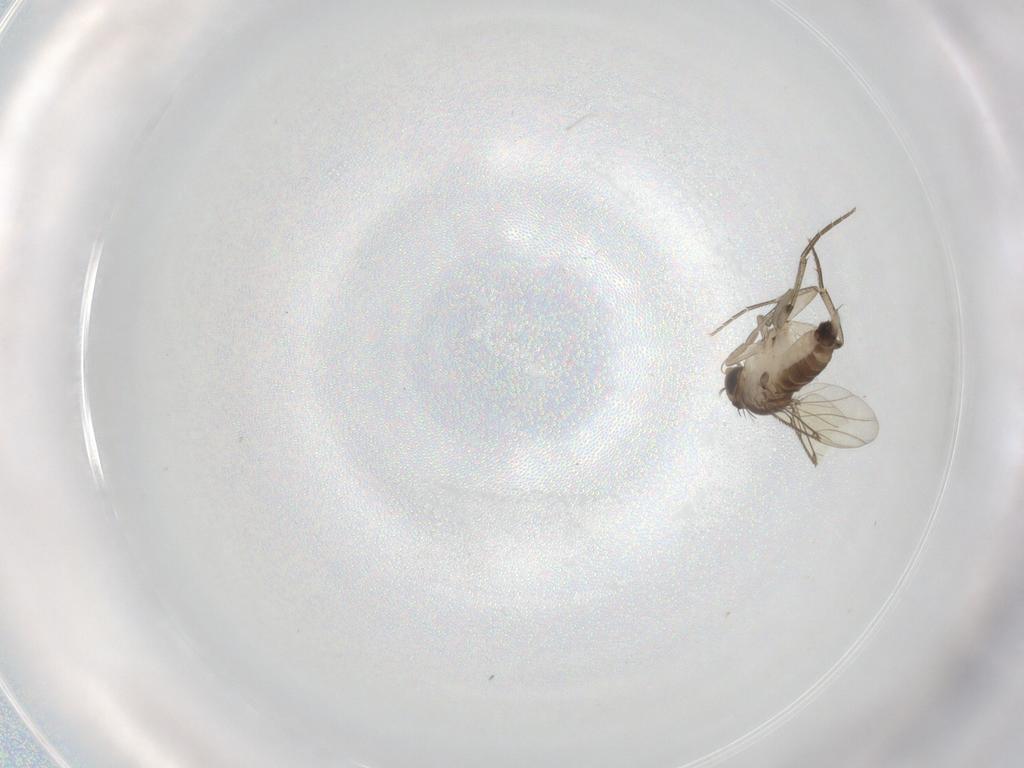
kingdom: Animalia
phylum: Arthropoda
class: Insecta
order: Diptera
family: Phoridae
